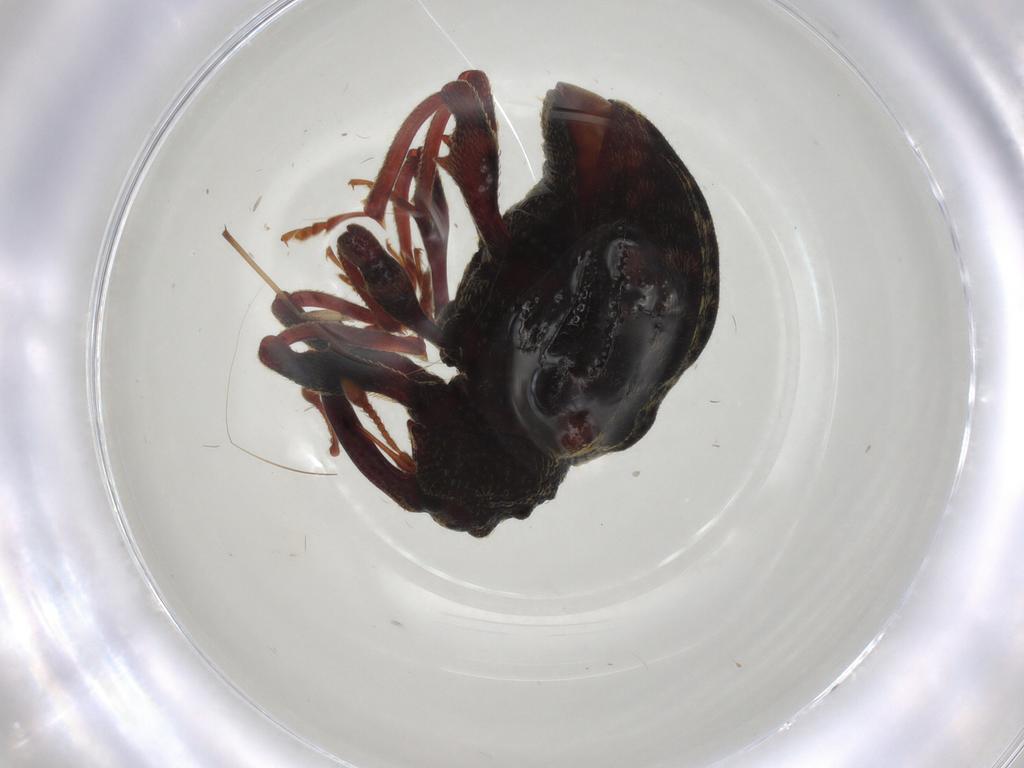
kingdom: Animalia
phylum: Arthropoda
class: Insecta
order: Coleoptera
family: Curculionidae
